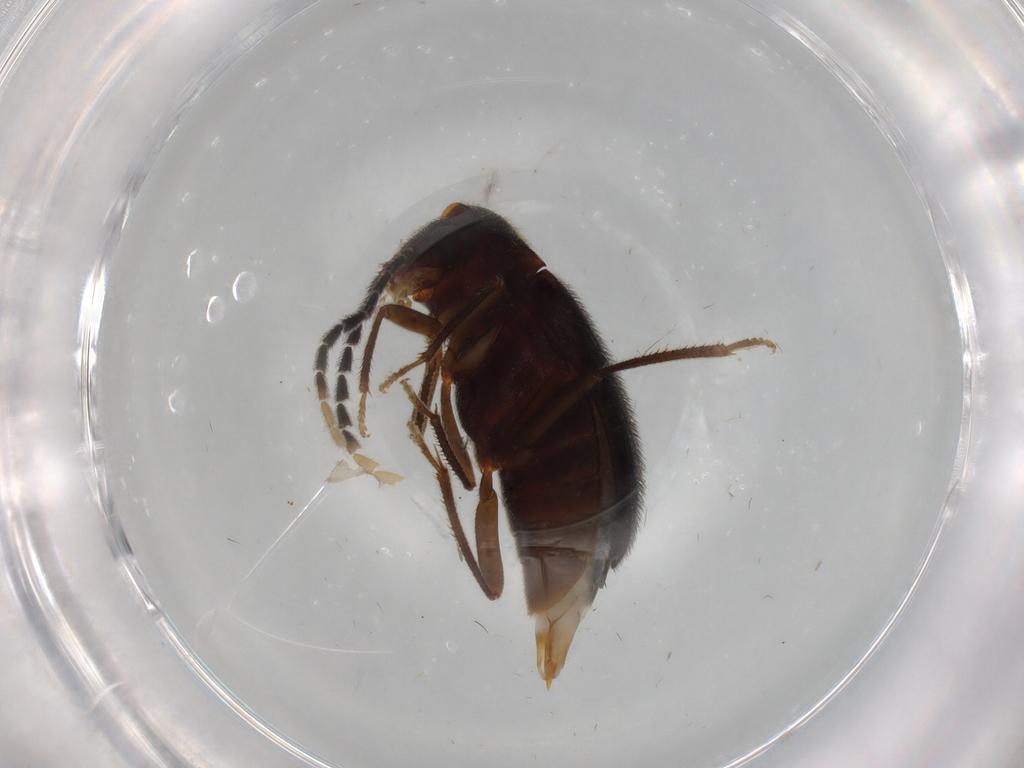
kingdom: Animalia
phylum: Arthropoda
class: Insecta
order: Coleoptera
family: Ptilodactylidae
